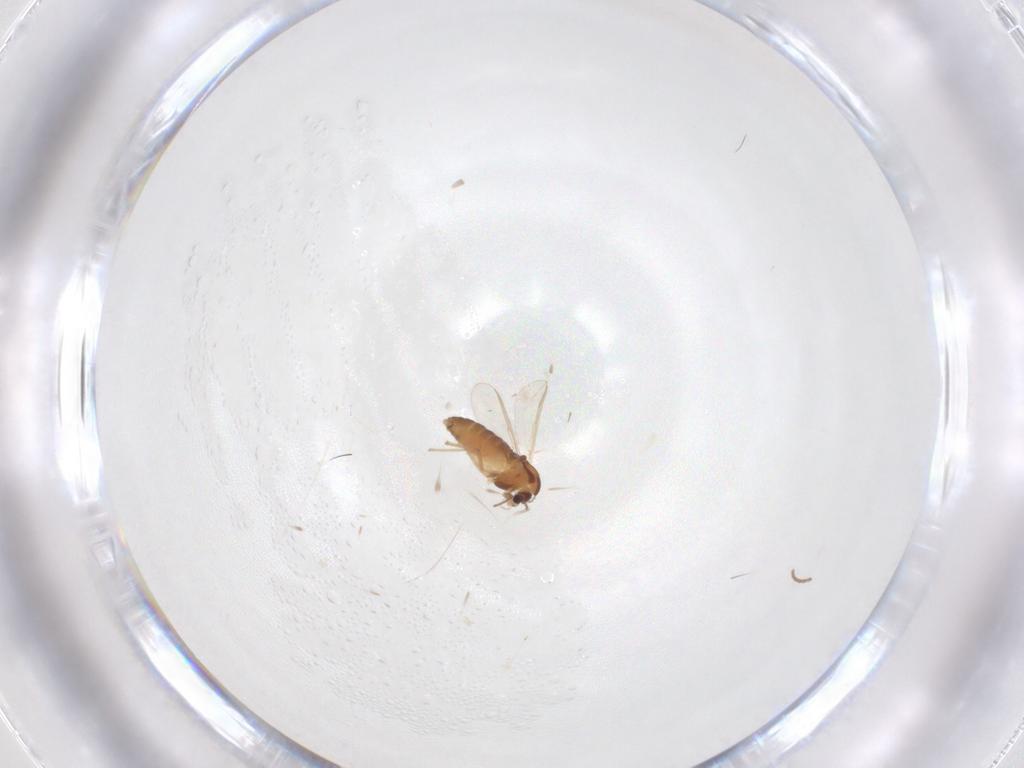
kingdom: Animalia
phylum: Arthropoda
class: Insecta
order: Diptera
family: Chironomidae
